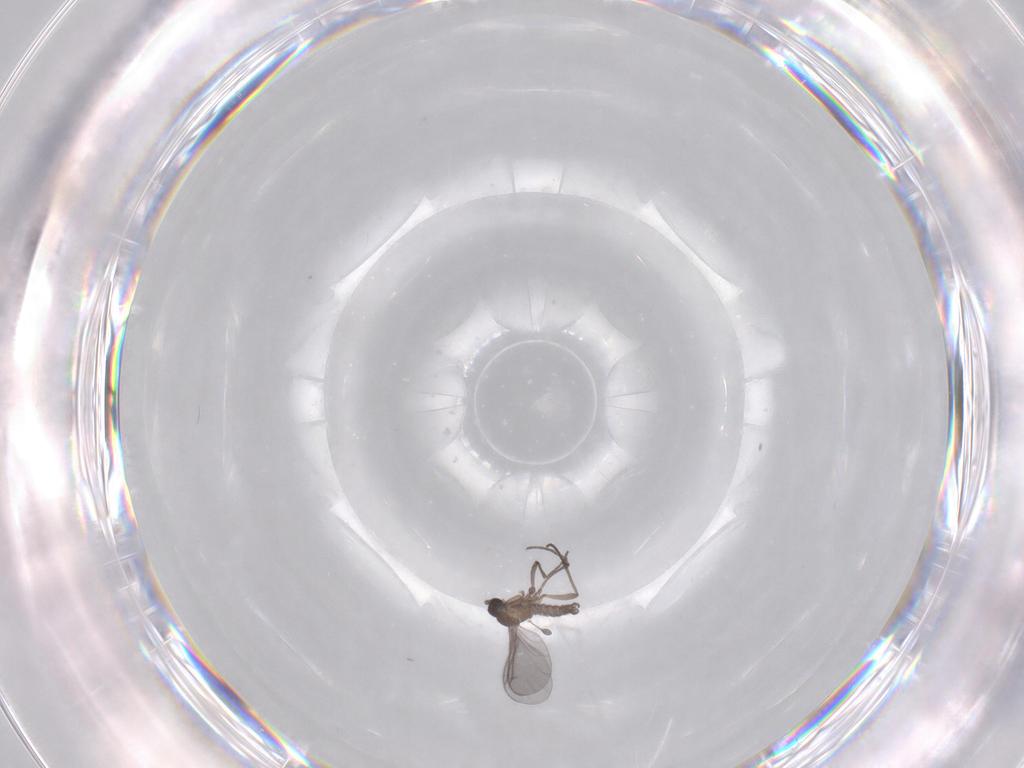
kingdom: Animalia
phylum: Arthropoda
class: Insecta
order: Diptera
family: Sciaridae
